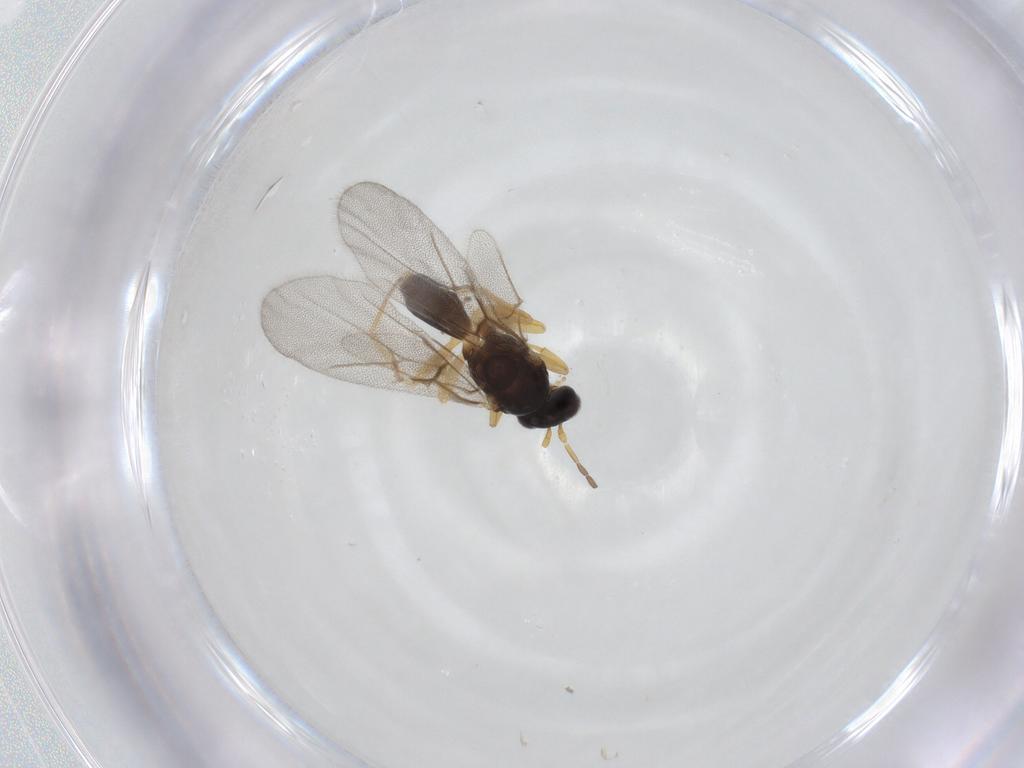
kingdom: Animalia
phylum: Arthropoda
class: Insecta
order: Hymenoptera
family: Cynipidae
